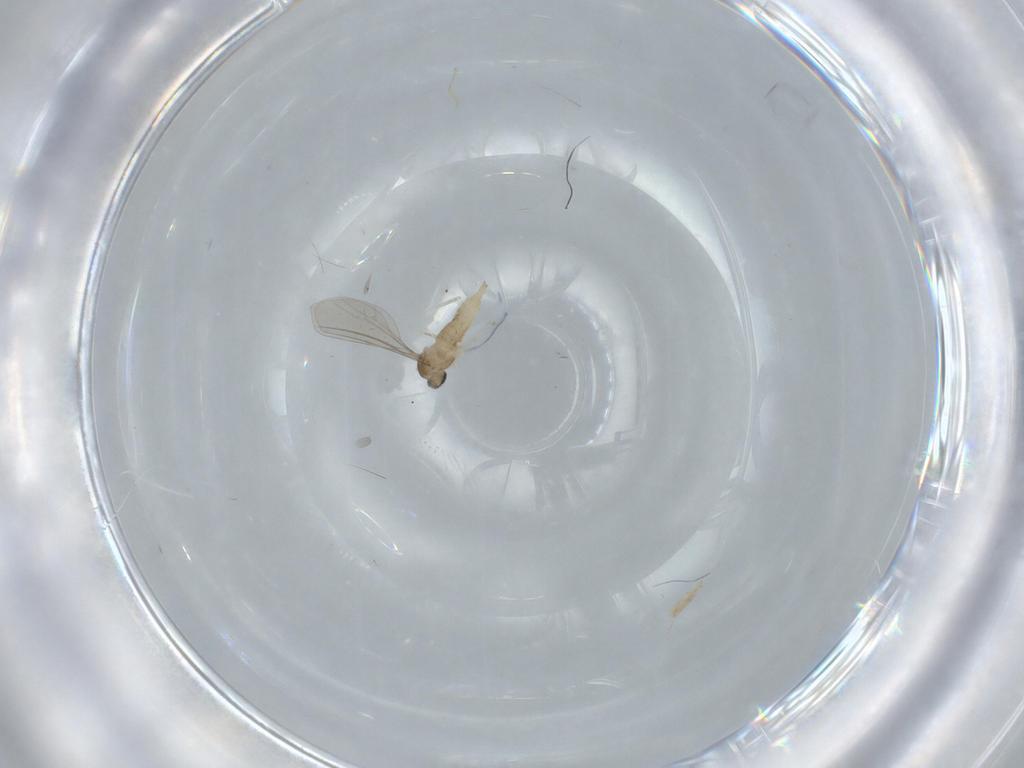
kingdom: Animalia
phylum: Arthropoda
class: Insecta
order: Diptera
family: Cecidomyiidae
